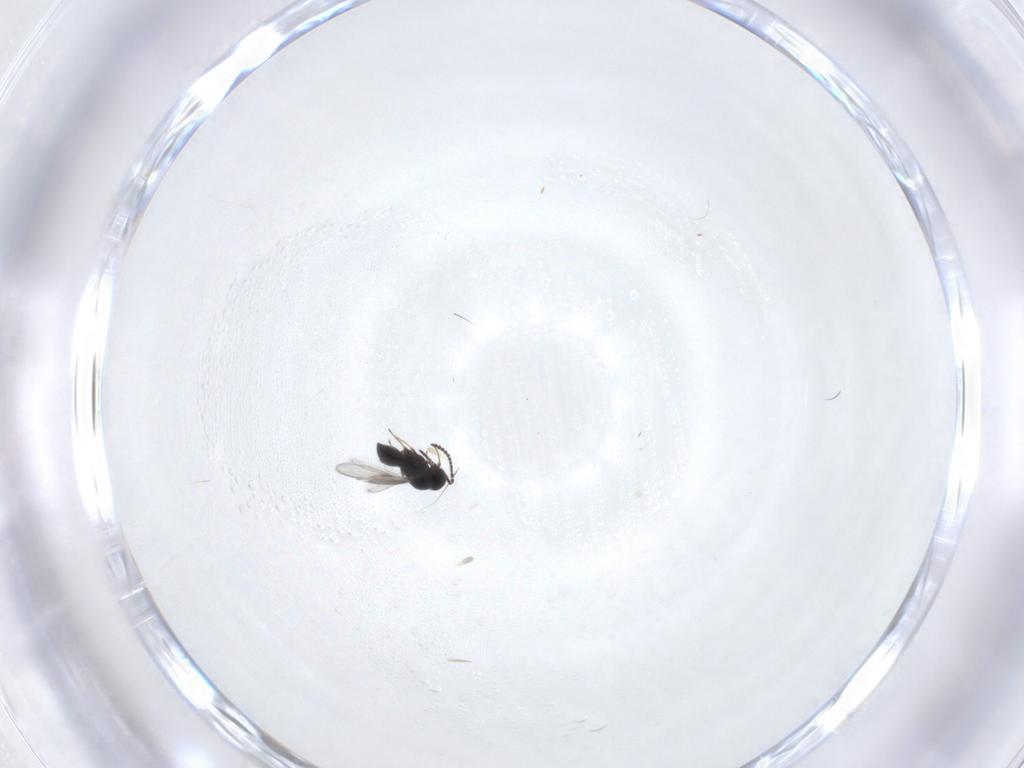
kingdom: Animalia
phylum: Arthropoda
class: Insecta
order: Hymenoptera
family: Scelionidae
